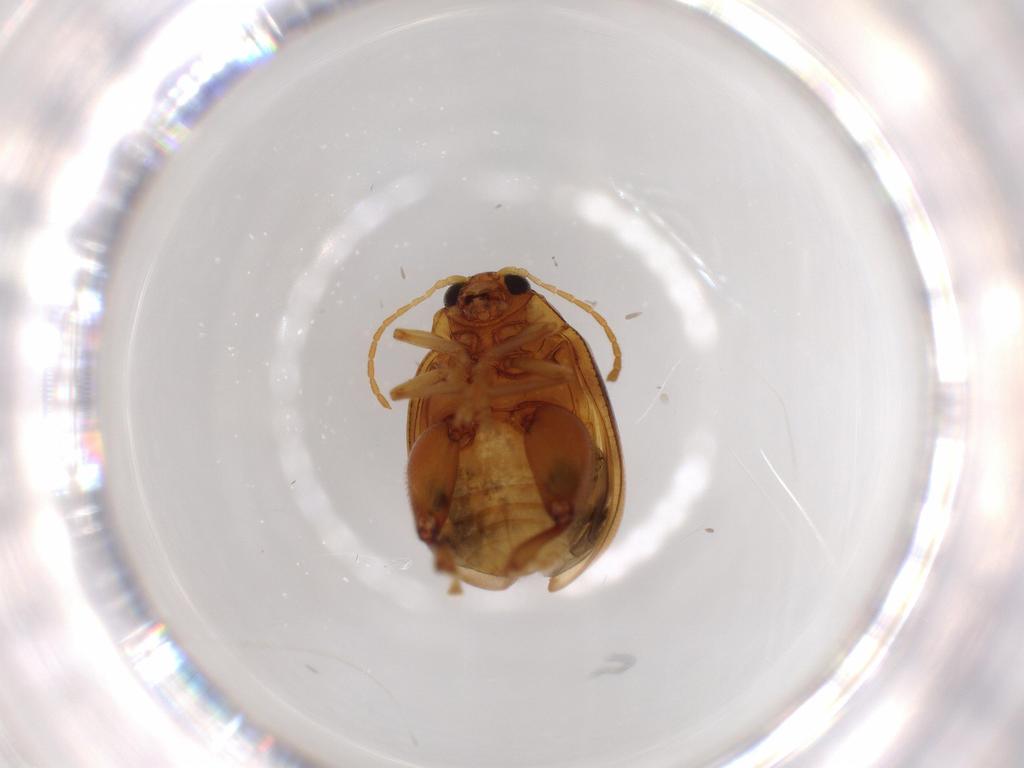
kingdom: Animalia
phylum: Arthropoda
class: Insecta
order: Coleoptera
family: Chrysomelidae
